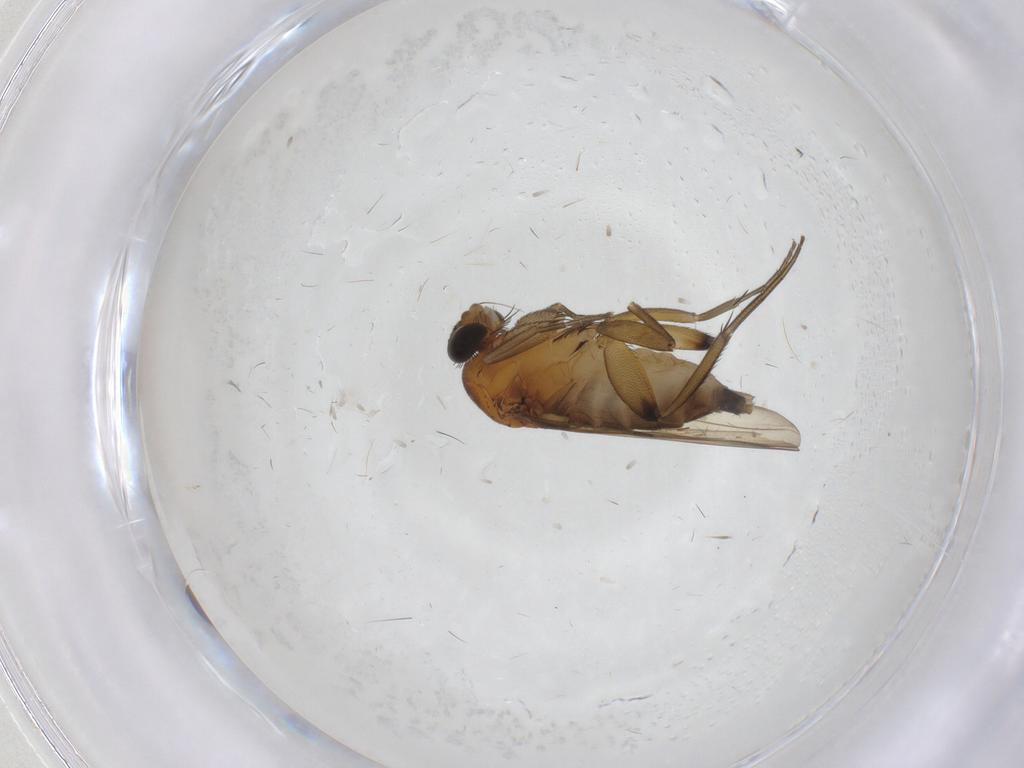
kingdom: Animalia
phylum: Arthropoda
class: Insecta
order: Diptera
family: Phoridae
